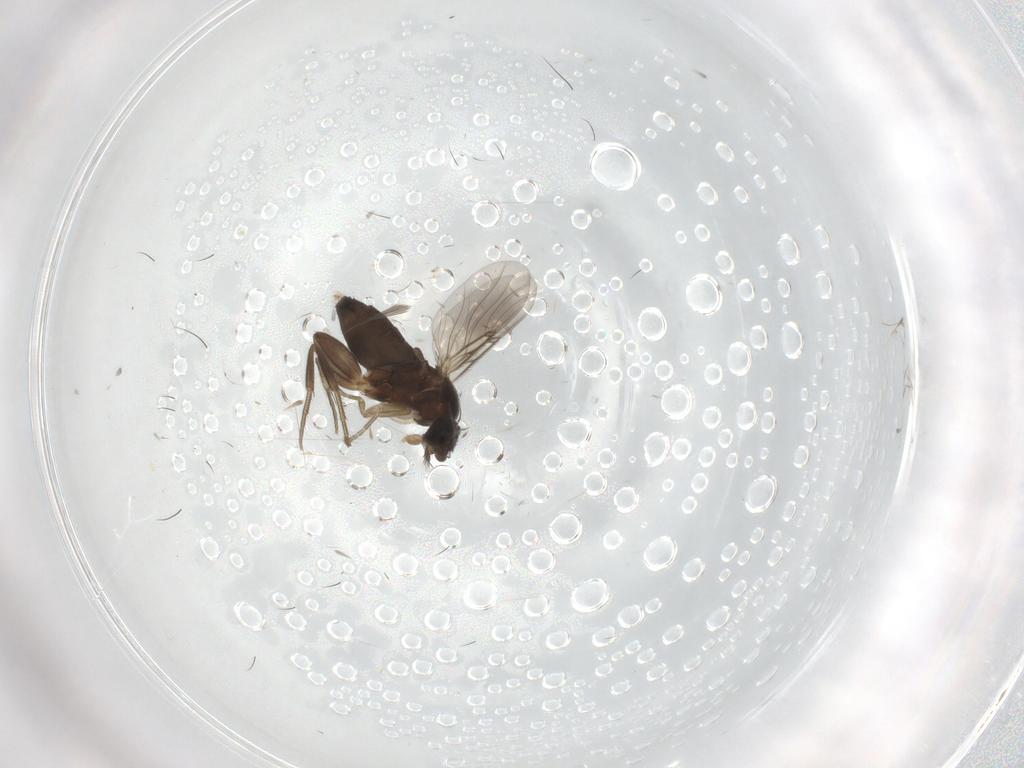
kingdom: Animalia
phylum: Arthropoda
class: Insecta
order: Diptera
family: Phoridae
